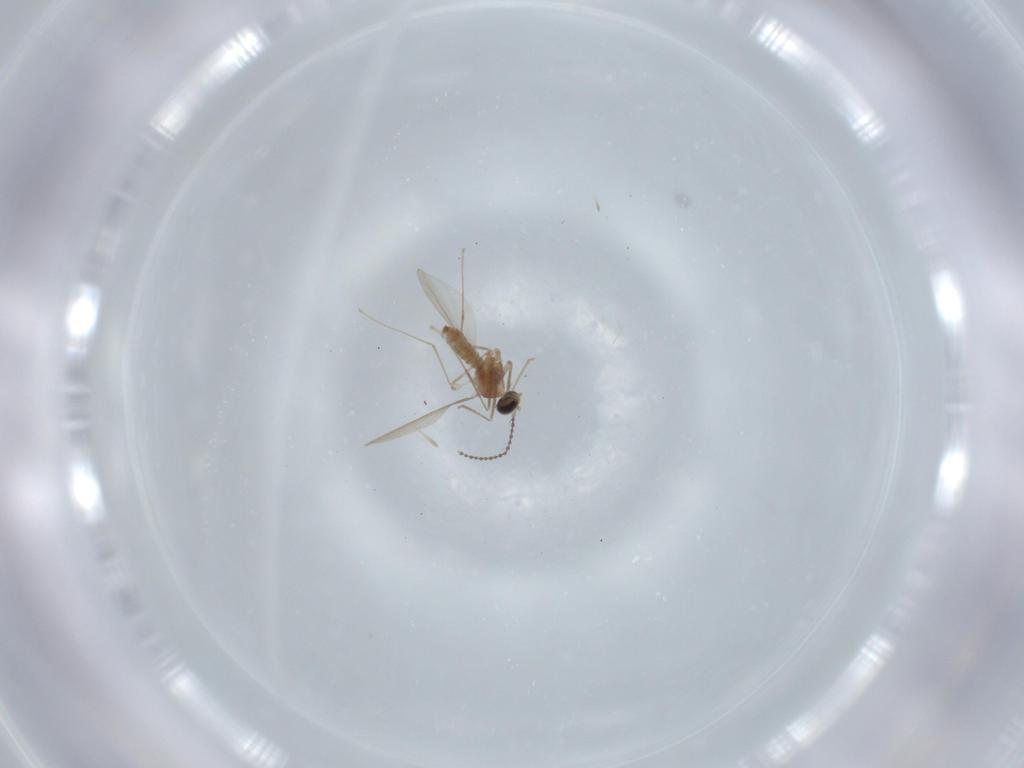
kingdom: Animalia
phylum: Arthropoda
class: Insecta
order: Diptera
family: Cecidomyiidae
